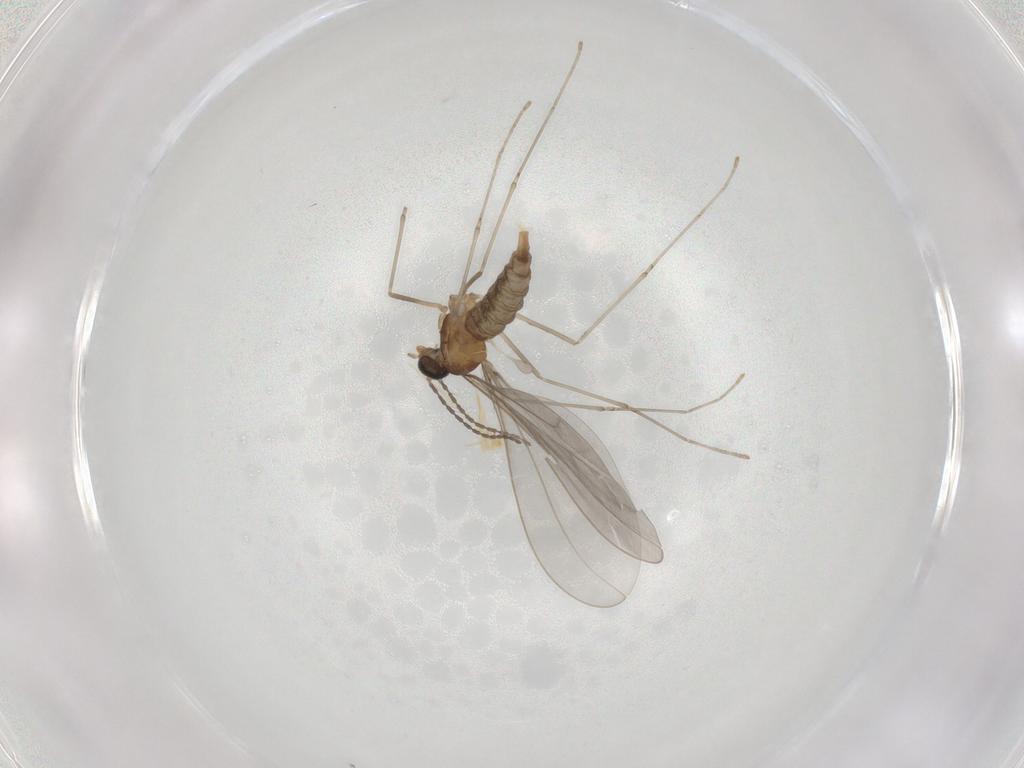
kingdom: Animalia
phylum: Arthropoda
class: Insecta
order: Diptera
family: Cecidomyiidae
